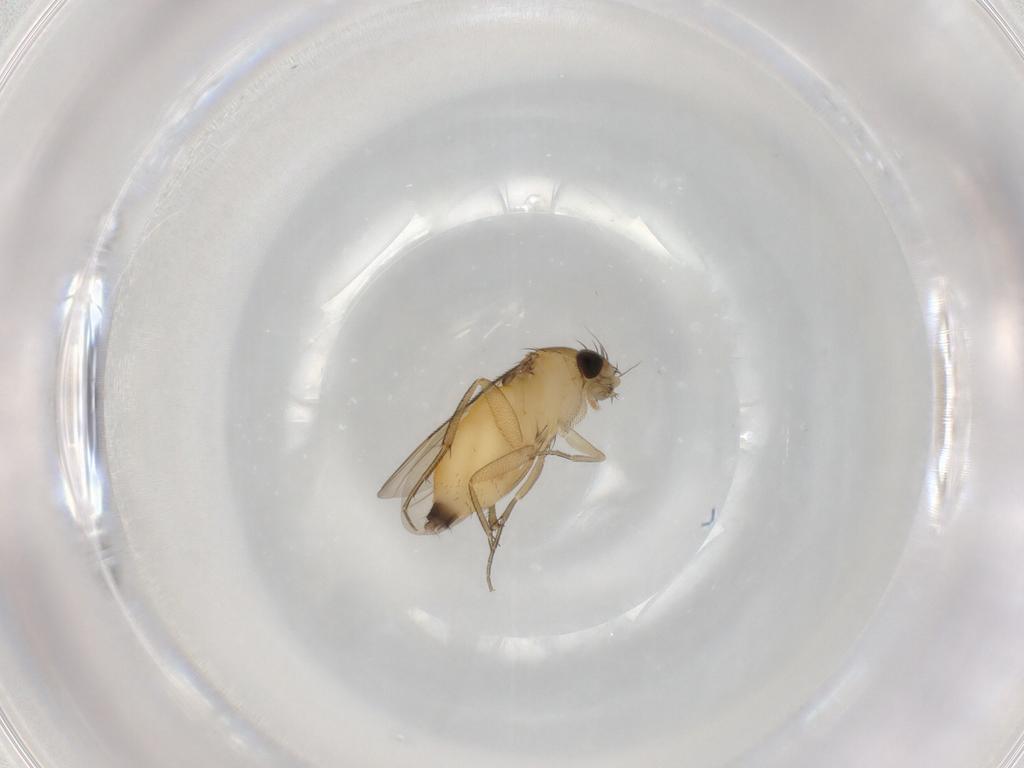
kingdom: Animalia
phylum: Arthropoda
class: Insecta
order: Diptera
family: Phoridae
